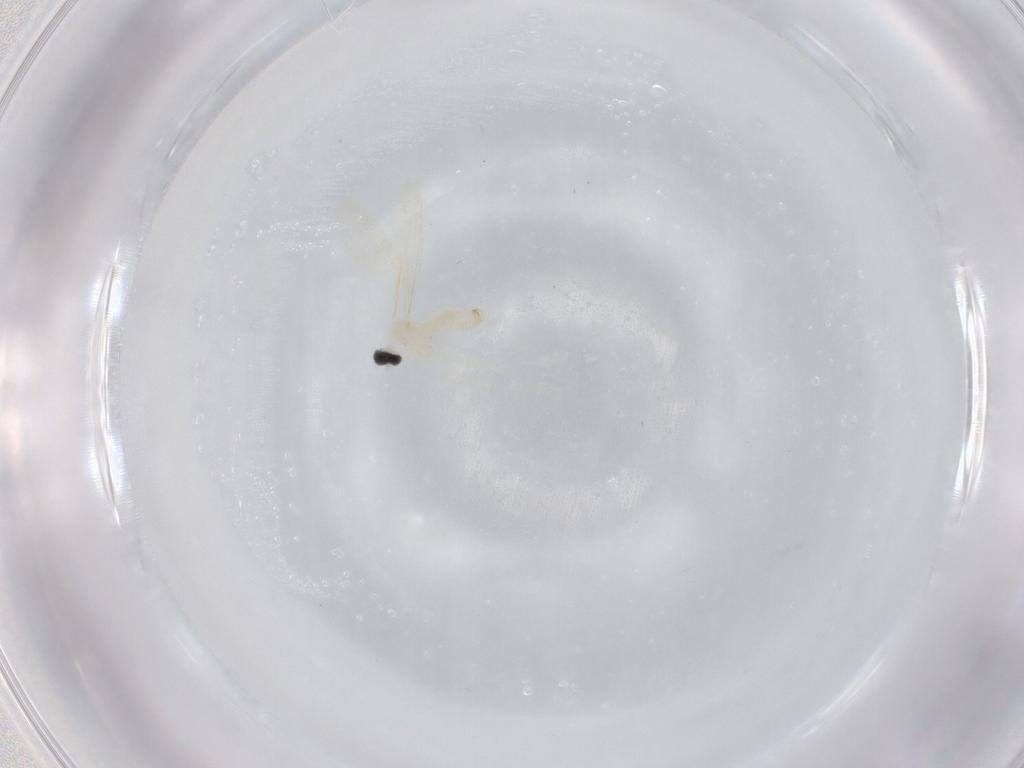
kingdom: Animalia
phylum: Arthropoda
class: Insecta
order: Diptera
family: Cecidomyiidae
